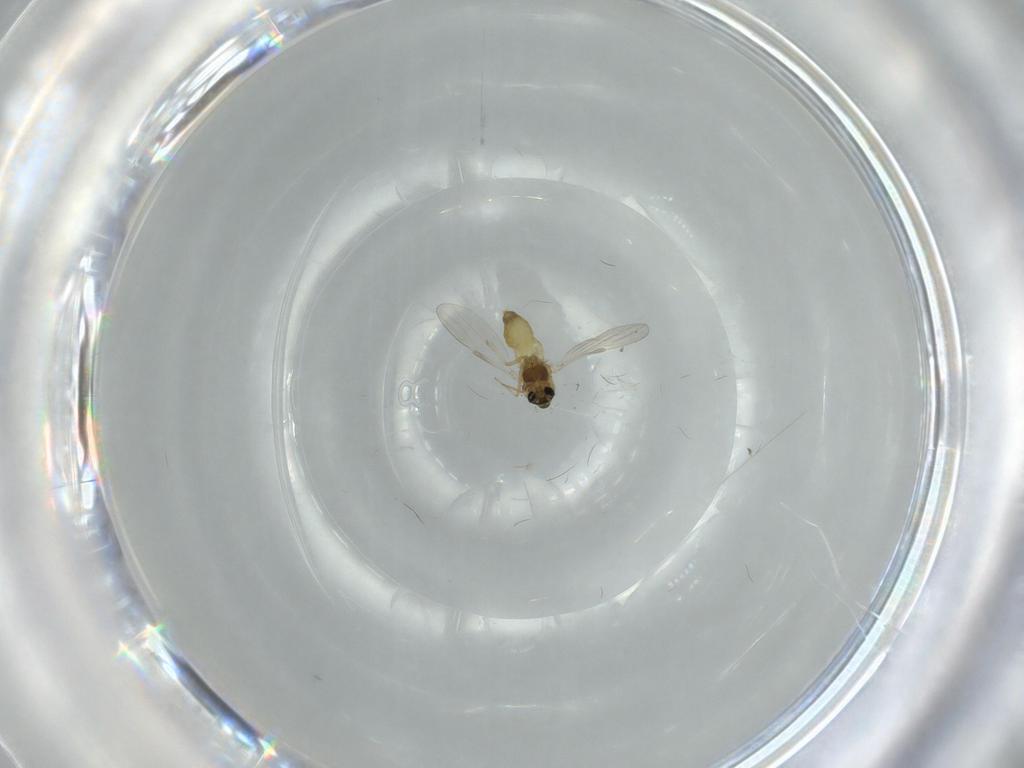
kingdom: Animalia
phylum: Arthropoda
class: Insecta
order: Diptera
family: Chironomidae
